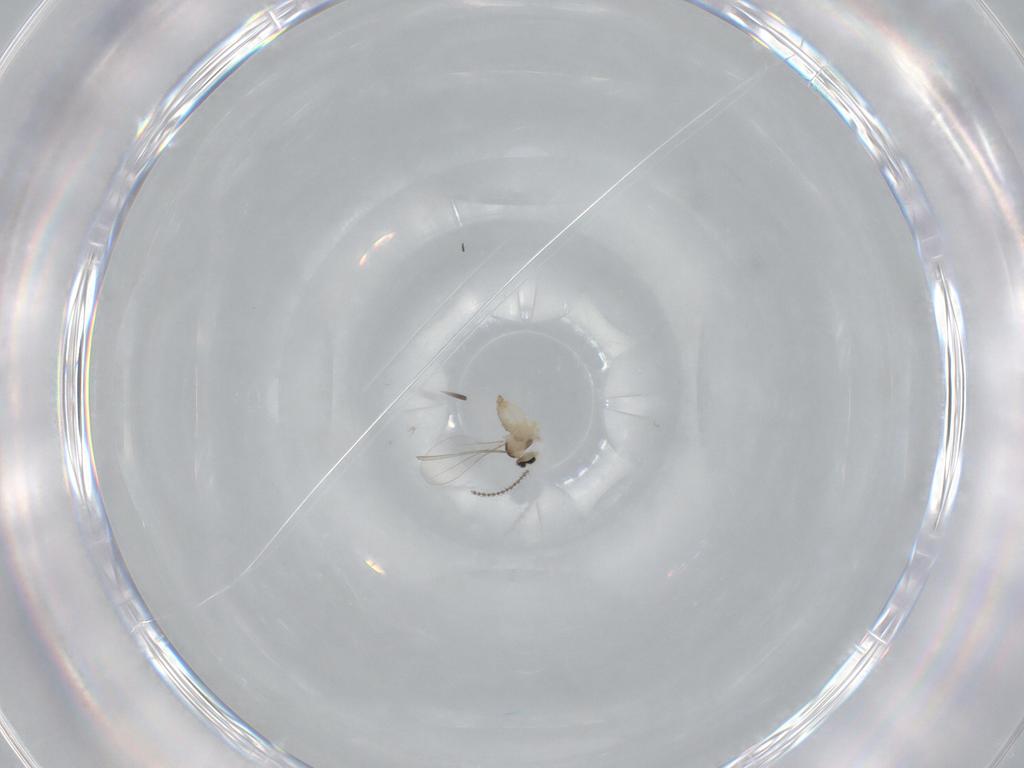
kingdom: Animalia
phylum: Arthropoda
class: Insecta
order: Diptera
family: Cecidomyiidae
